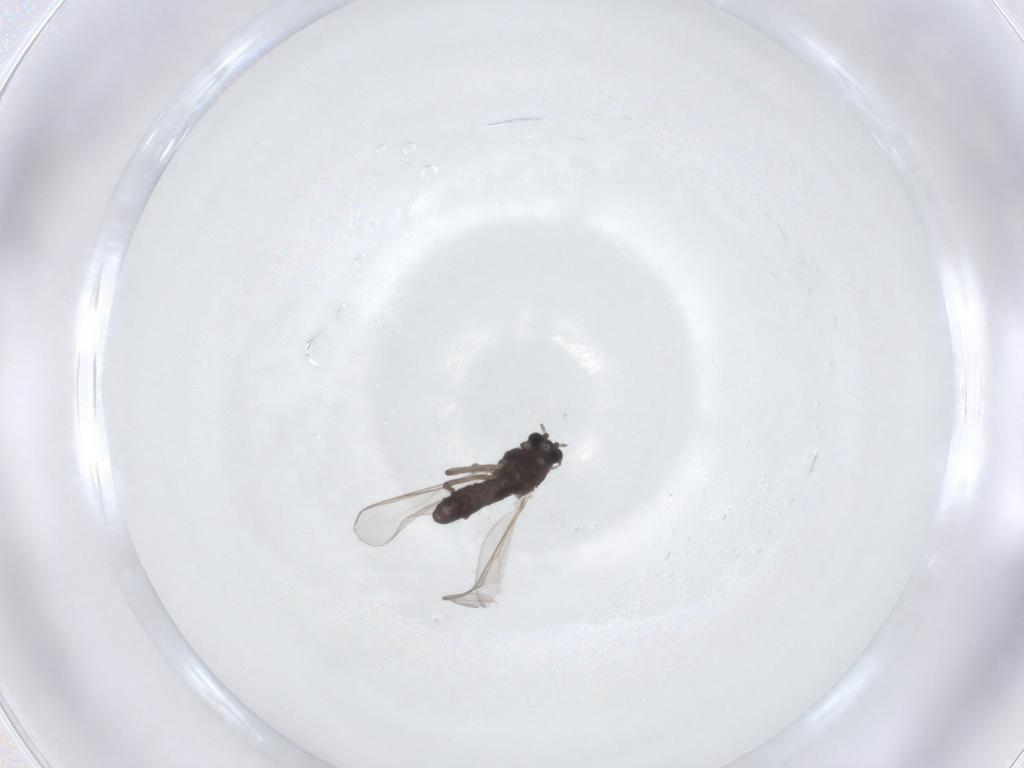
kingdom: Animalia
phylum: Arthropoda
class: Insecta
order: Diptera
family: Chironomidae
